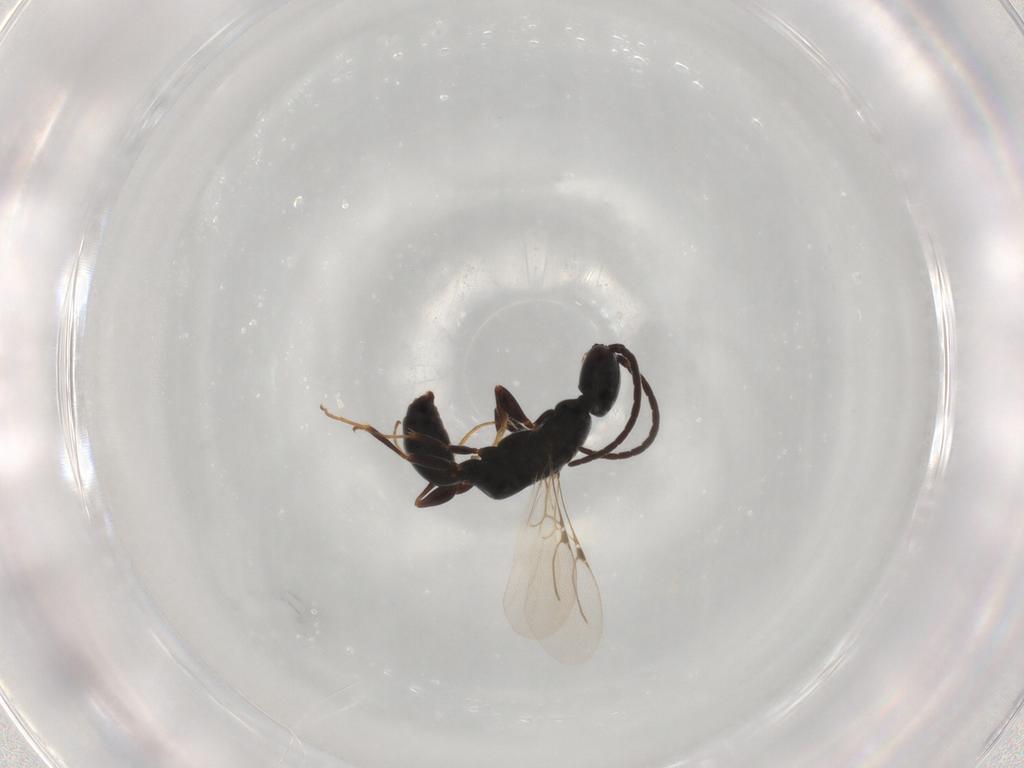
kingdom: Animalia
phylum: Arthropoda
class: Insecta
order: Hymenoptera
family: Bethylidae
